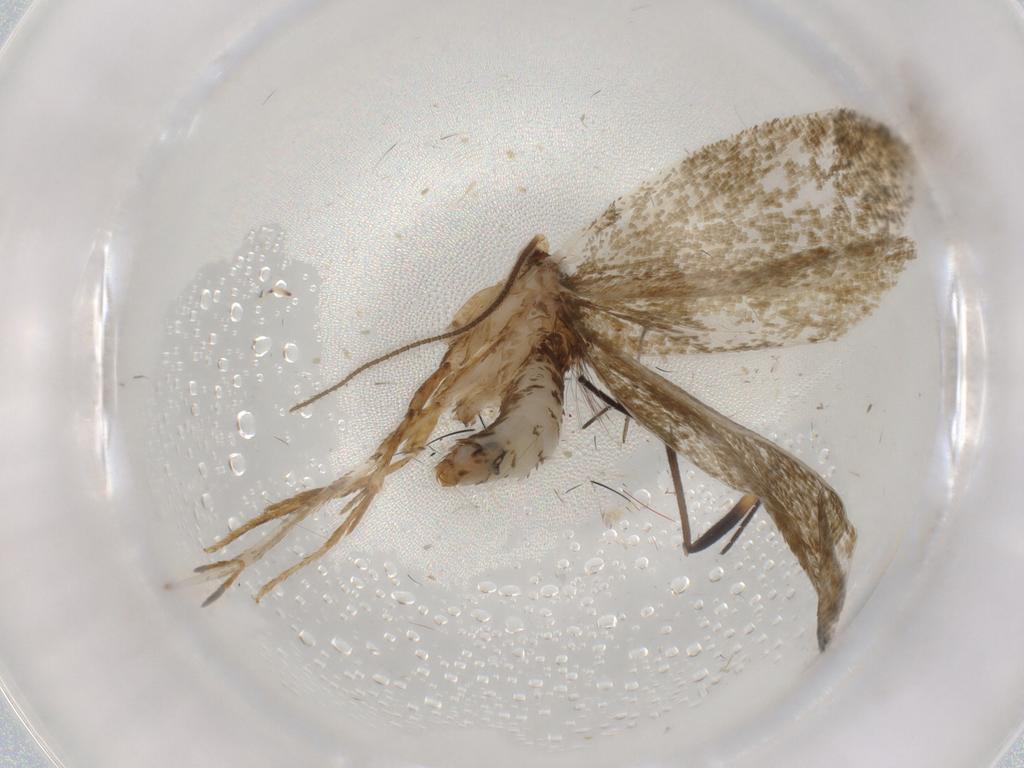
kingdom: Animalia
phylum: Arthropoda
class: Insecta
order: Lepidoptera
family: Tineidae
